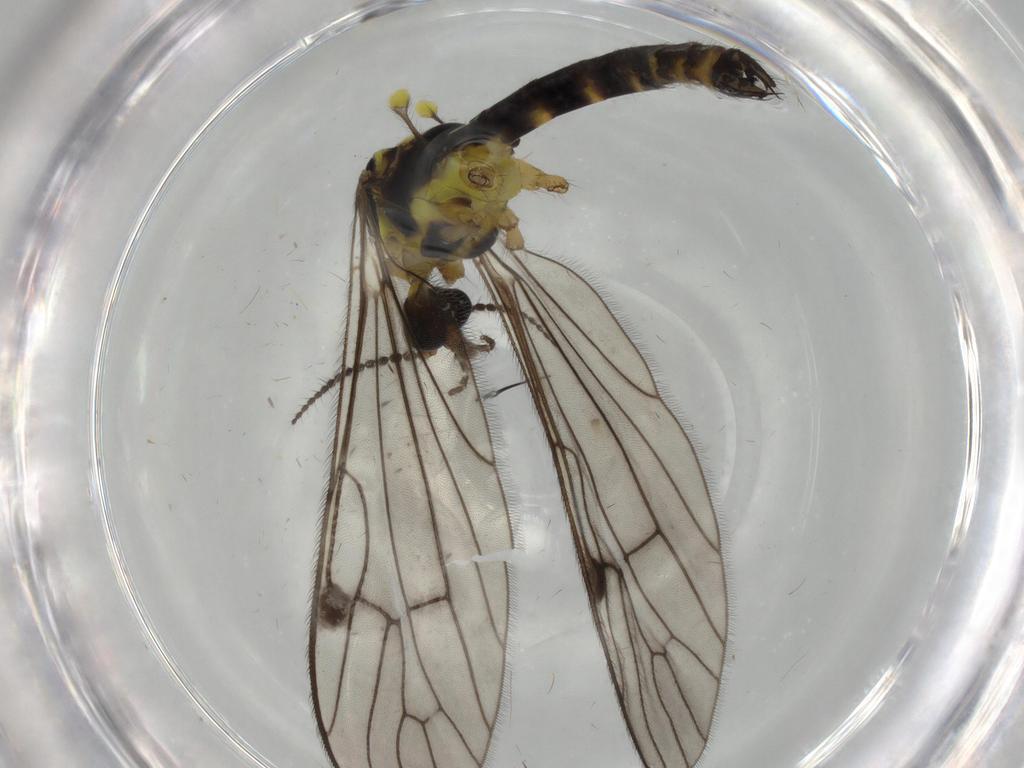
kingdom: Animalia
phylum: Arthropoda
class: Insecta
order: Diptera
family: Limoniidae
